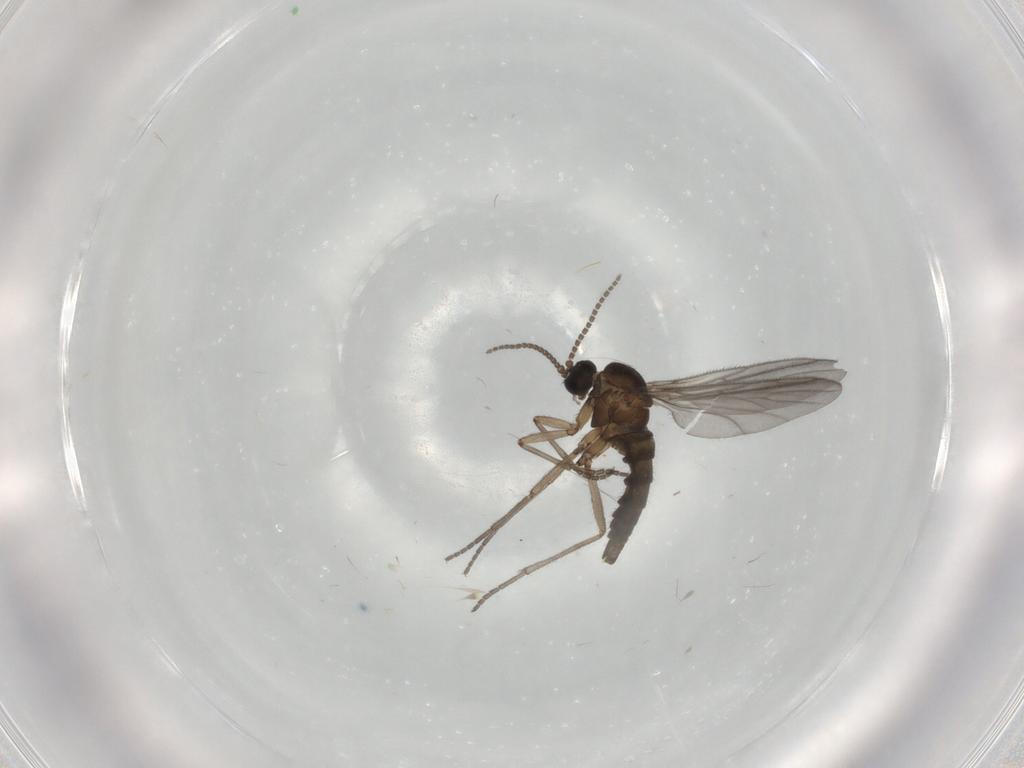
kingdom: Animalia
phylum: Arthropoda
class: Insecta
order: Diptera
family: Sciaridae
